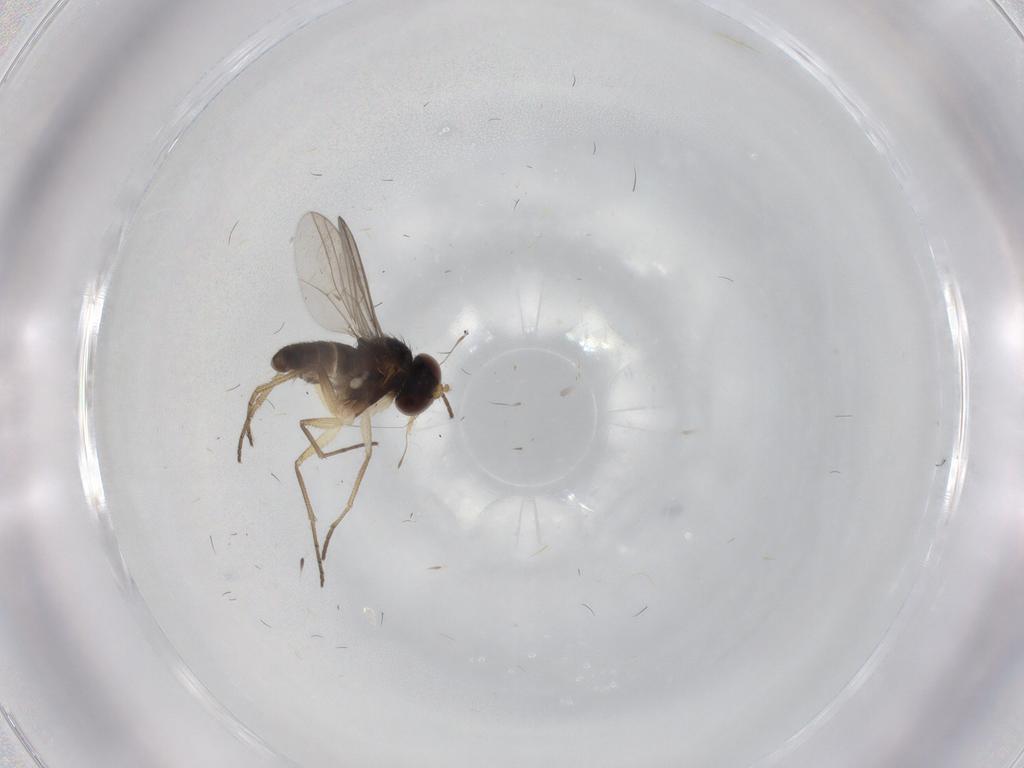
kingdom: Animalia
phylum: Arthropoda
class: Insecta
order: Diptera
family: Dolichopodidae
